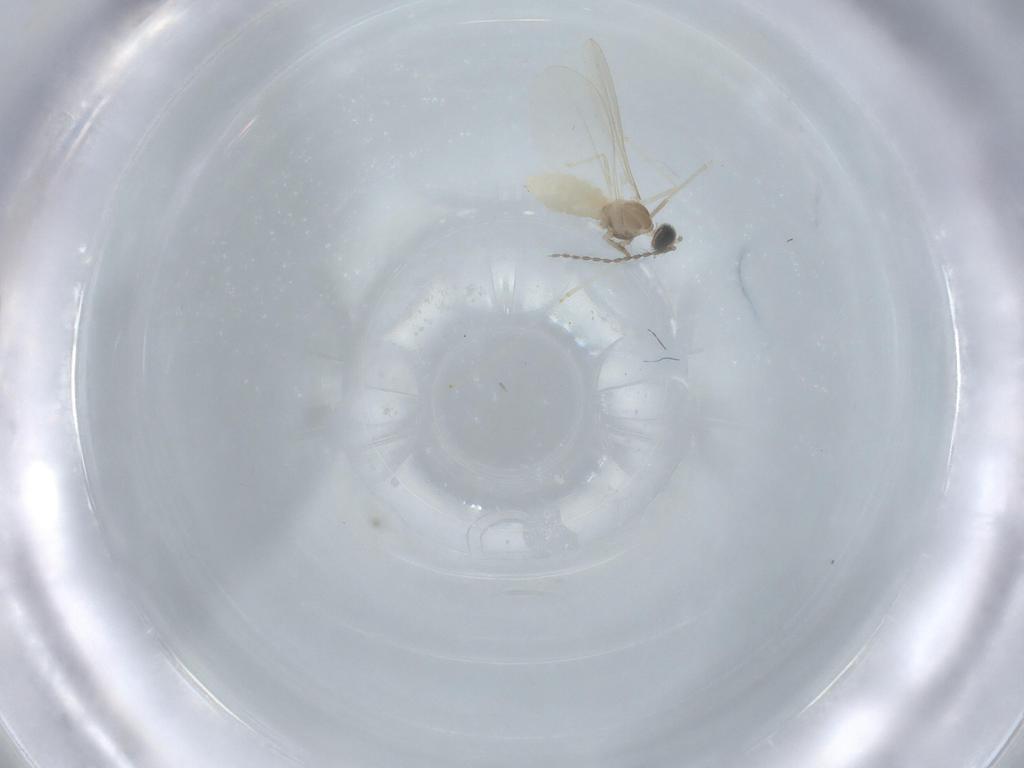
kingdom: Animalia
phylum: Arthropoda
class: Insecta
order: Diptera
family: Cecidomyiidae
